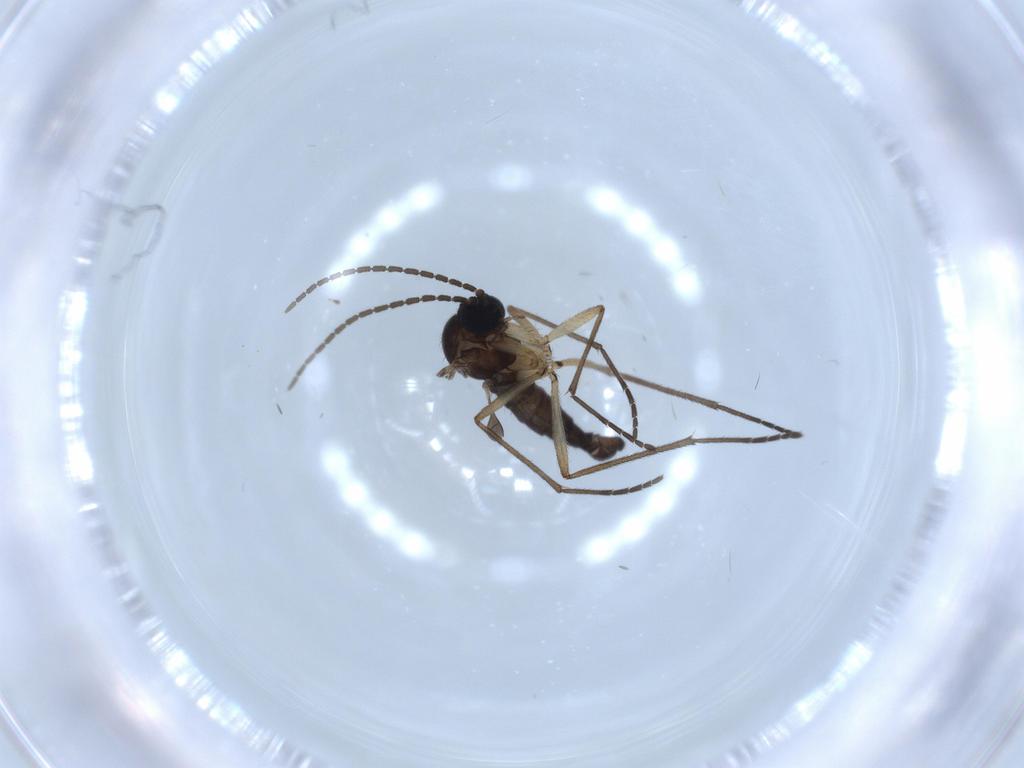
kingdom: Animalia
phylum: Arthropoda
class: Insecta
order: Diptera
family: Sciaridae
